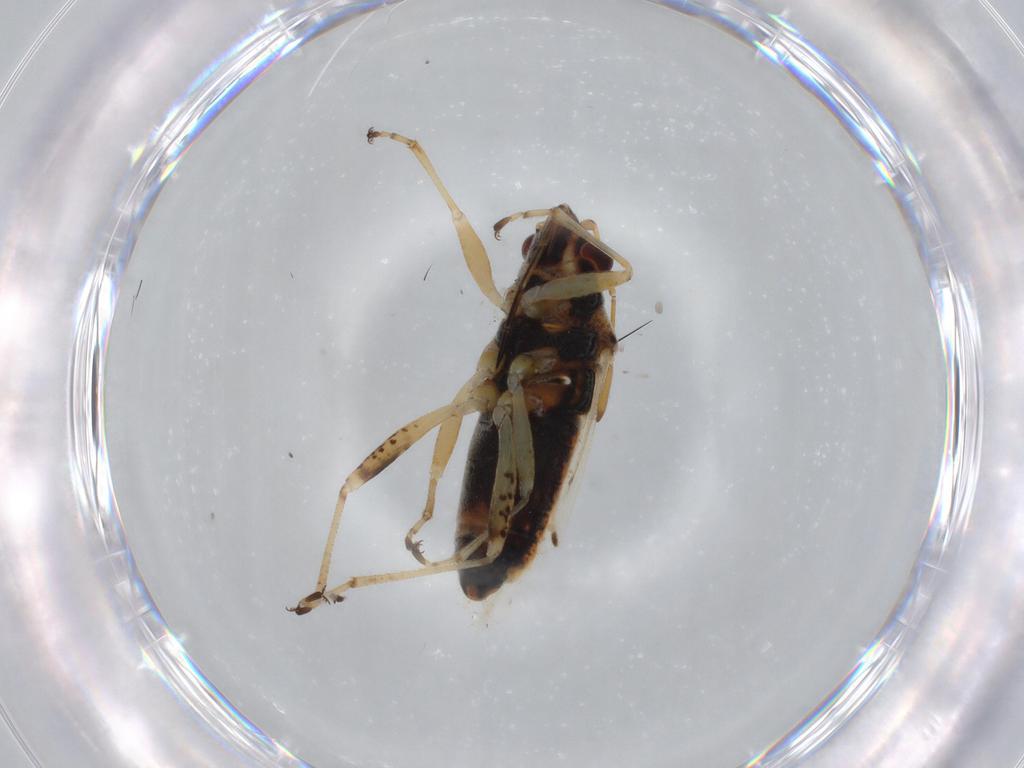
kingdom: Animalia
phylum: Arthropoda
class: Insecta
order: Hemiptera
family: Lygaeidae
